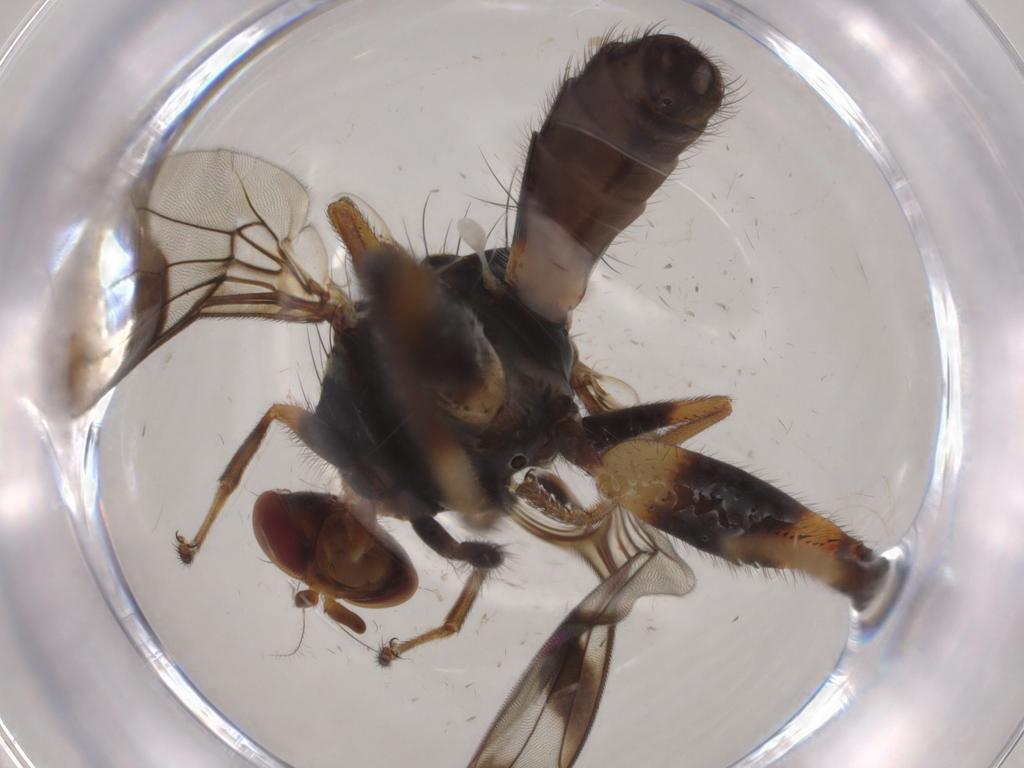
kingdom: Animalia
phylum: Arthropoda
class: Insecta
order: Diptera
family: Richardiidae
